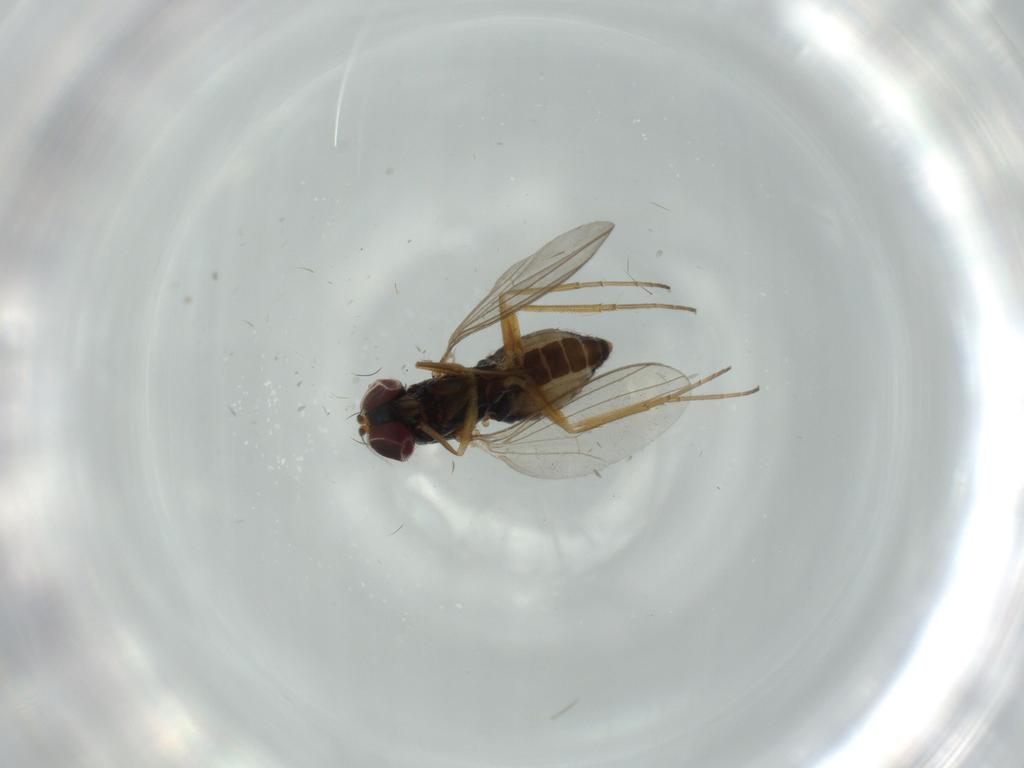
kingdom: Animalia
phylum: Arthropoda
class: Insecta
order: Diptera
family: Dolichopodidae
